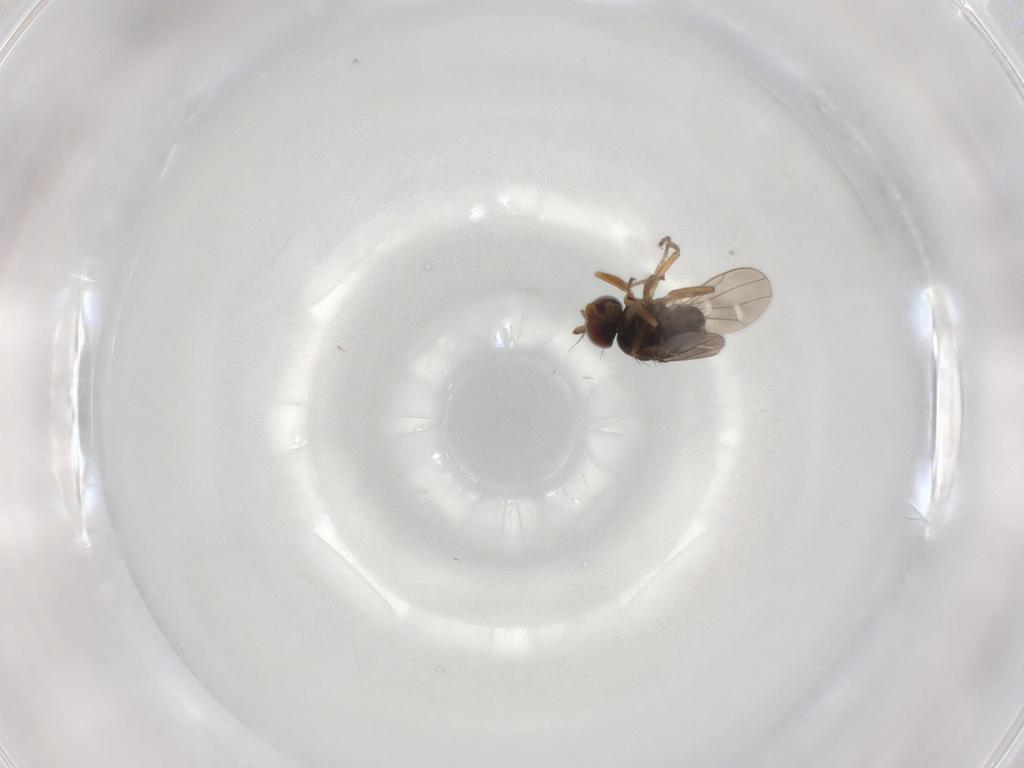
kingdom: Animalia
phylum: Arthropoda
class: Insecta
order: Diptera
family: Ephydridae
